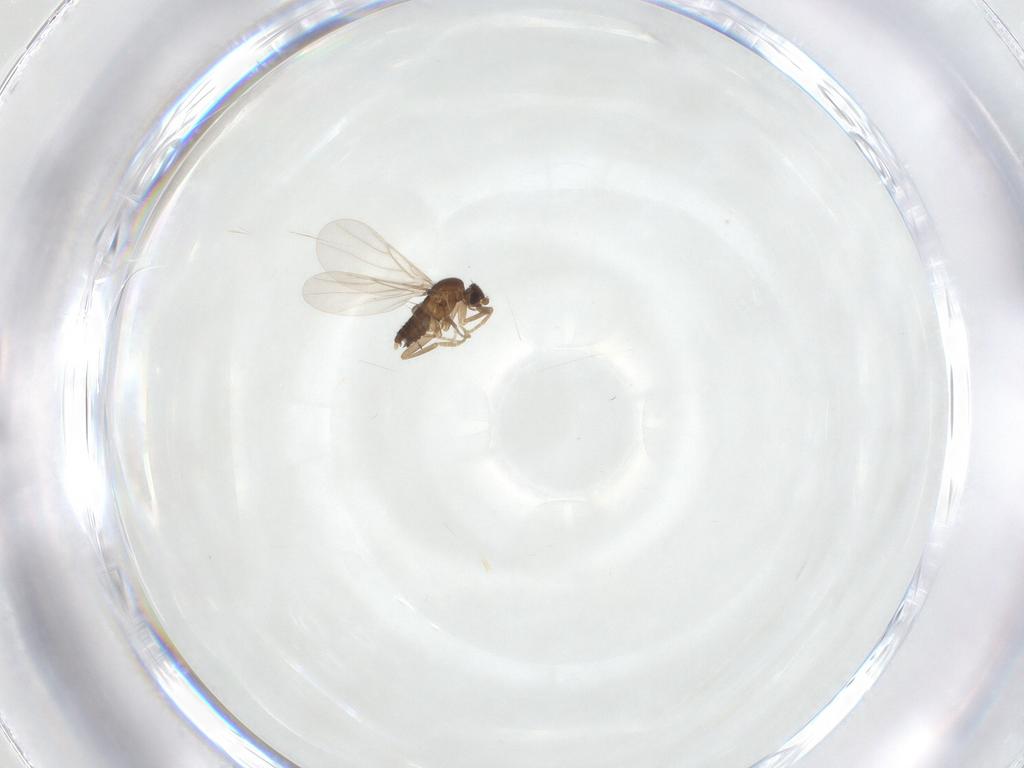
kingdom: Animalia
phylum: Arthropoda
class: Insecta
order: Diptera
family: Phoridae
